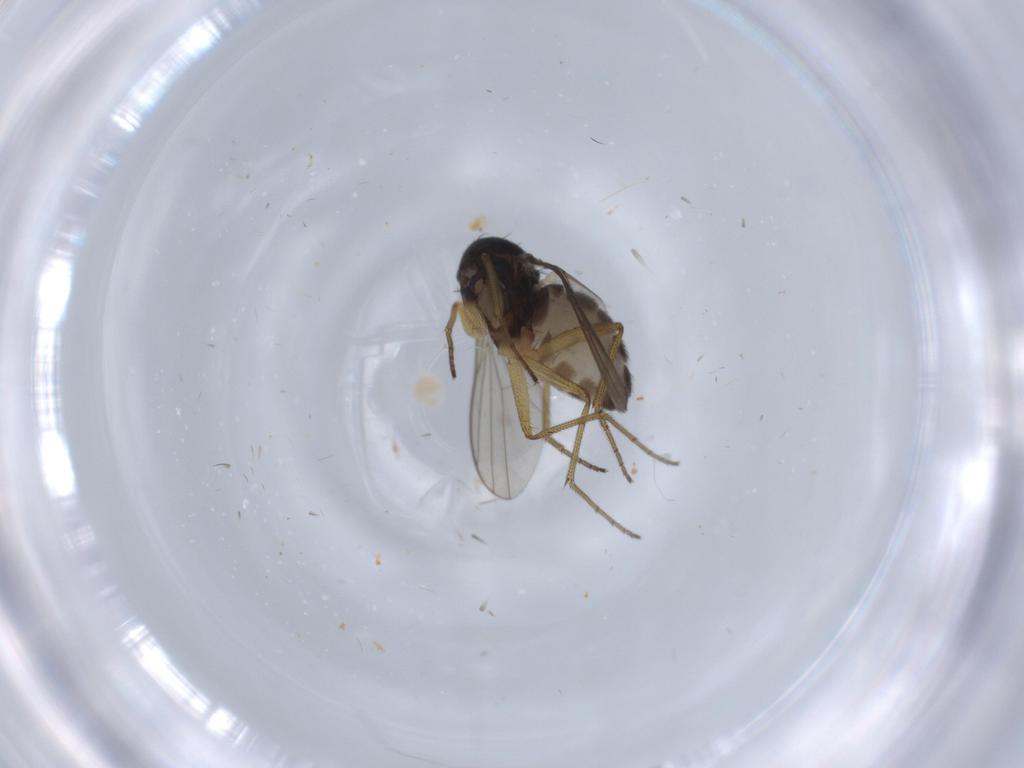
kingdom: Animalia
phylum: Arthropoda
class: Insecta
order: Diptera
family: Dolichopodidae
